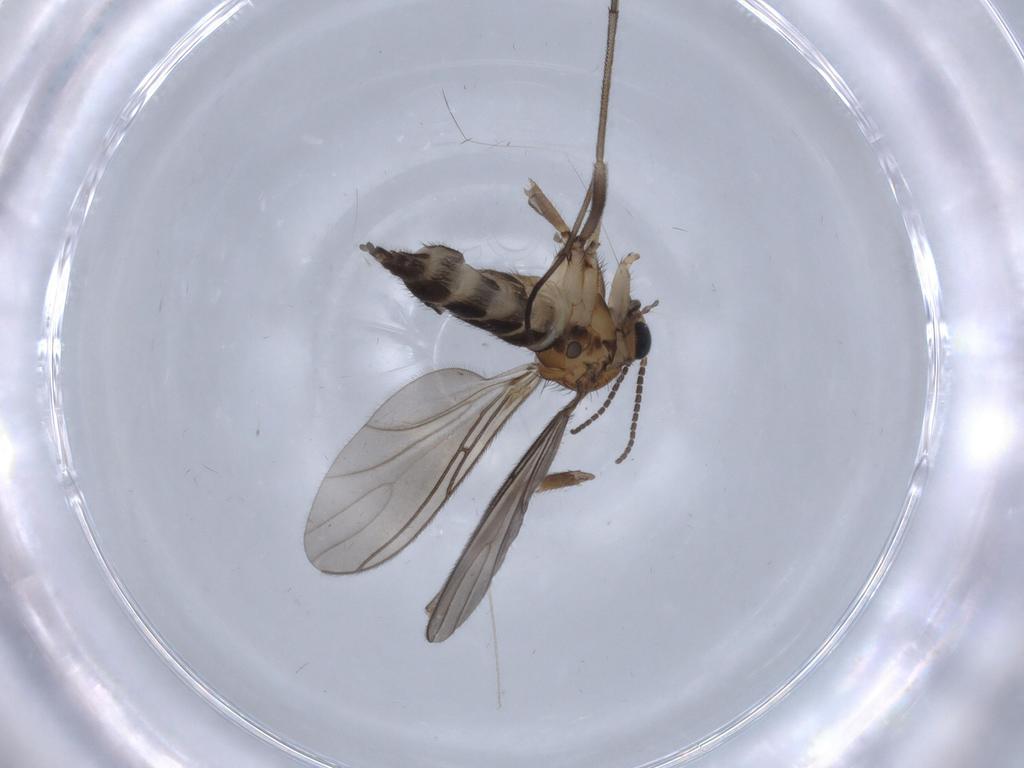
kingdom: Animalia
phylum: Arthropoda
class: Insecta
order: Diptera
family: Sciaridae
